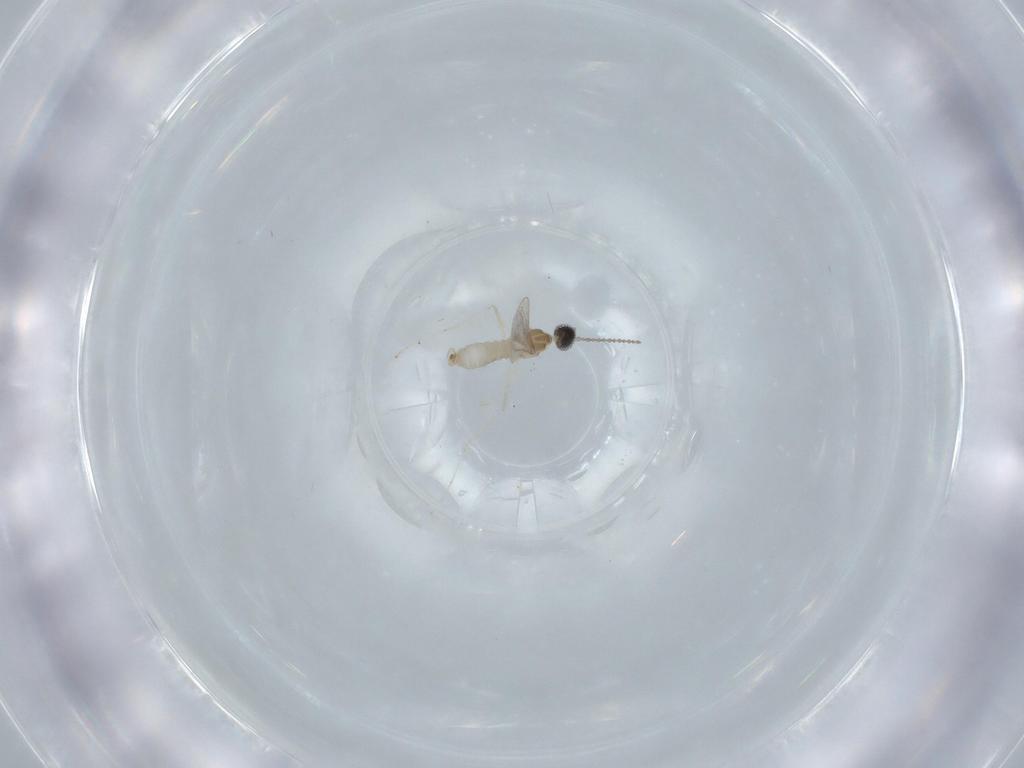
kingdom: Animalia
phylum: Arthropoda
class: Insecta
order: Diptera
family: Cecidomyiidae
